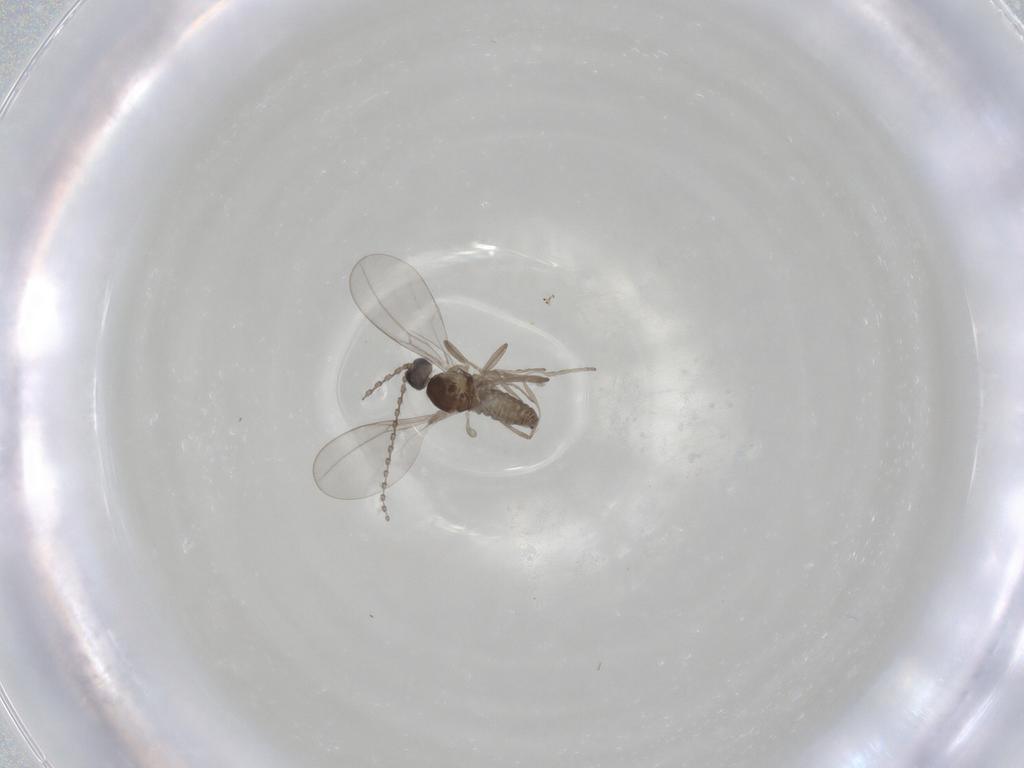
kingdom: Animalia
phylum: Arthropoda
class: Insecta
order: Diptera
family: Cecidomyiidae
